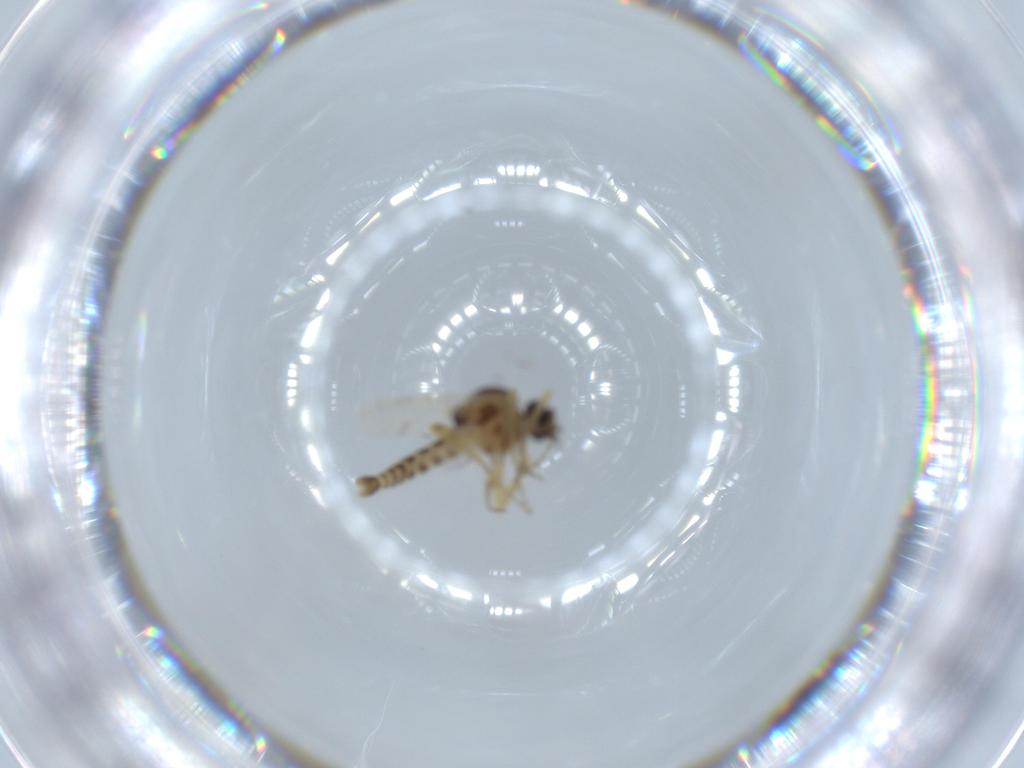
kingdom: Animalia
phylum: Arthropoda
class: Insecta
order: Diptera
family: Ceratopogonidae
